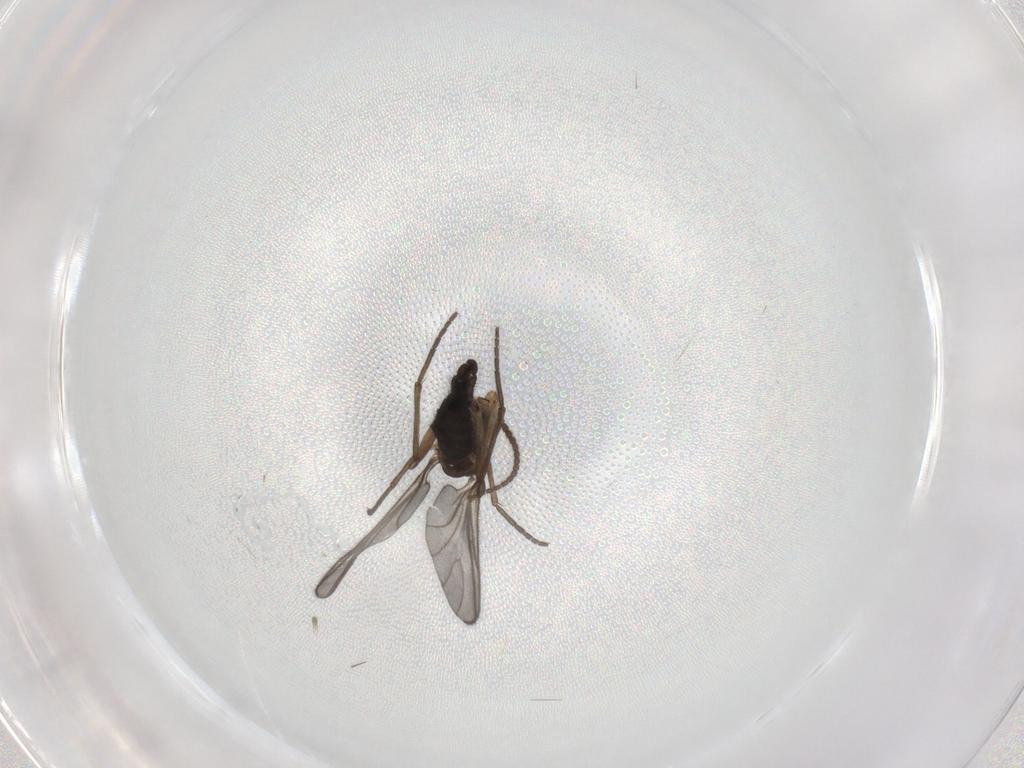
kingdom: Animalia
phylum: Arthropoda
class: Insecta
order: Diptera
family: Sciaridae
